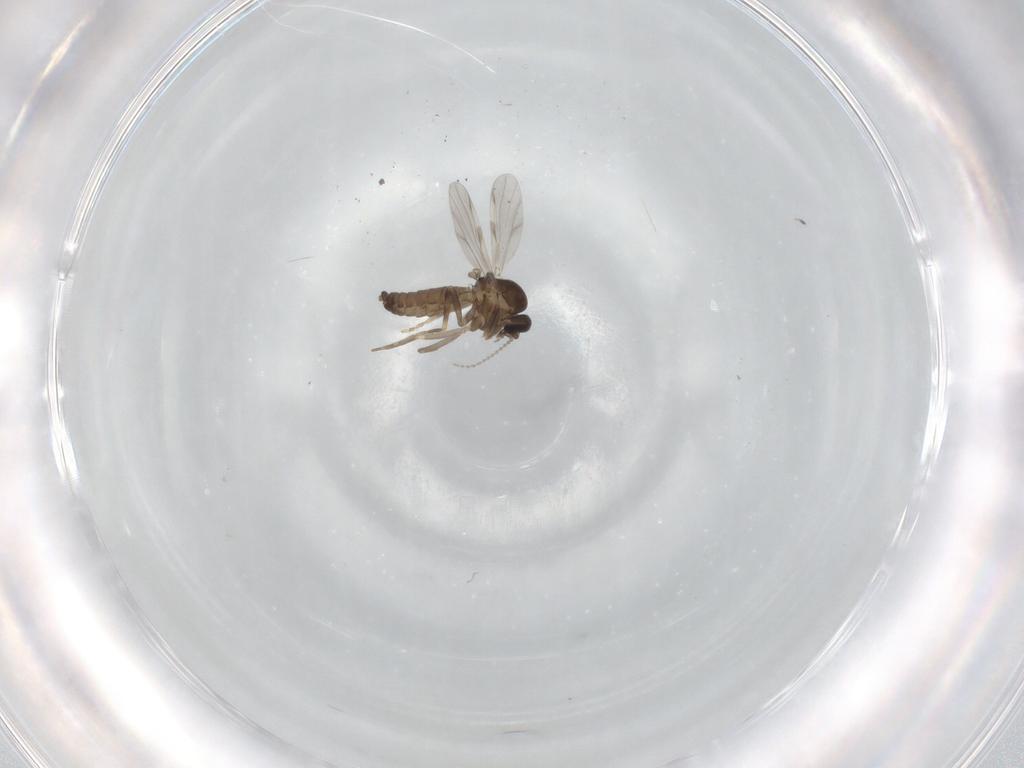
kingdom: Animalia
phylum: Arthropoda
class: Insecta
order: Diptera
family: Ceratopogonidae
